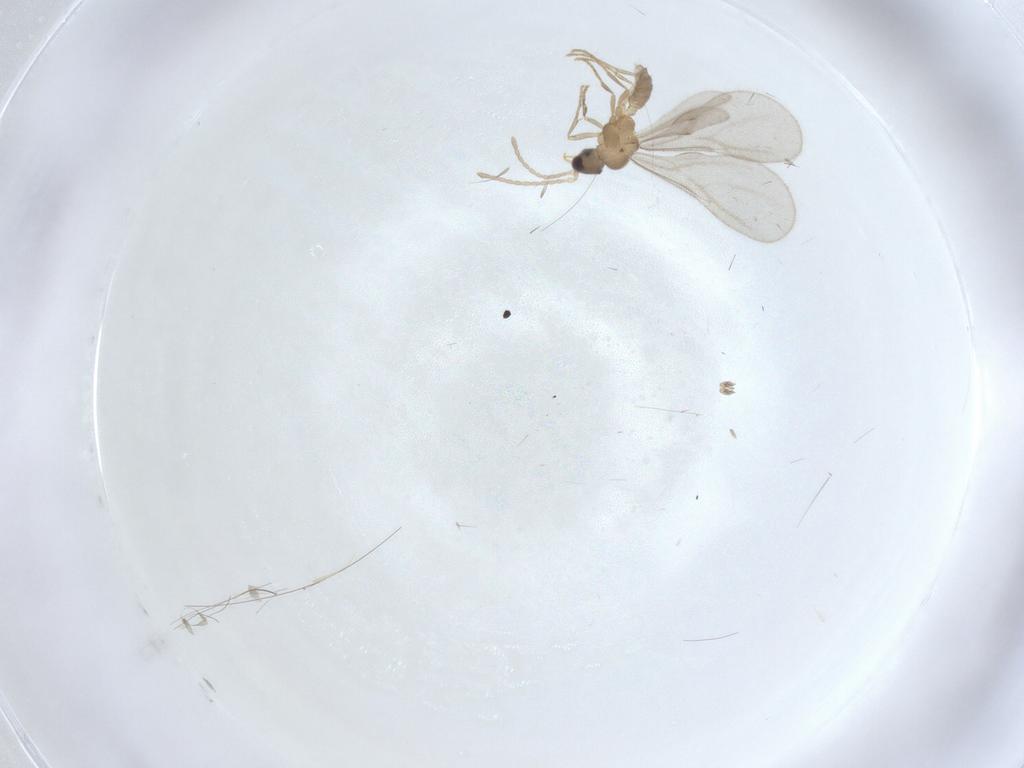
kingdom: Animalia
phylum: Arthropoda
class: Insecta
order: Hymenoptera
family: Formicidae
